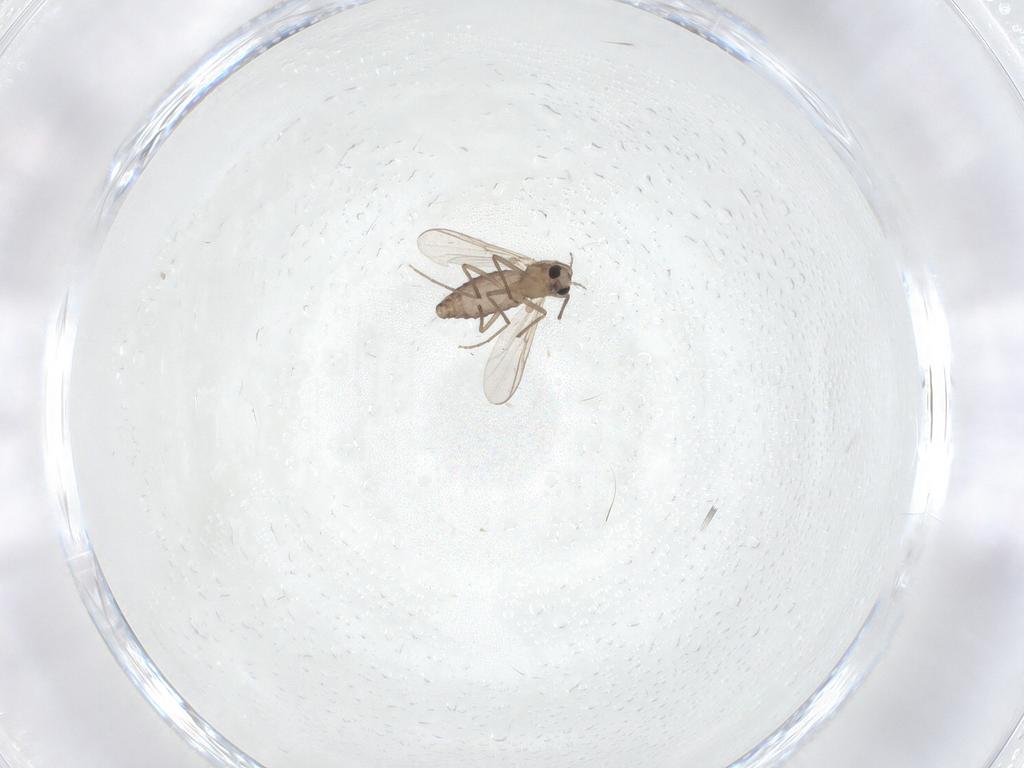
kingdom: Animalia
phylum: Arthropoda
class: Insecta
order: Diptera
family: Chironomidae
